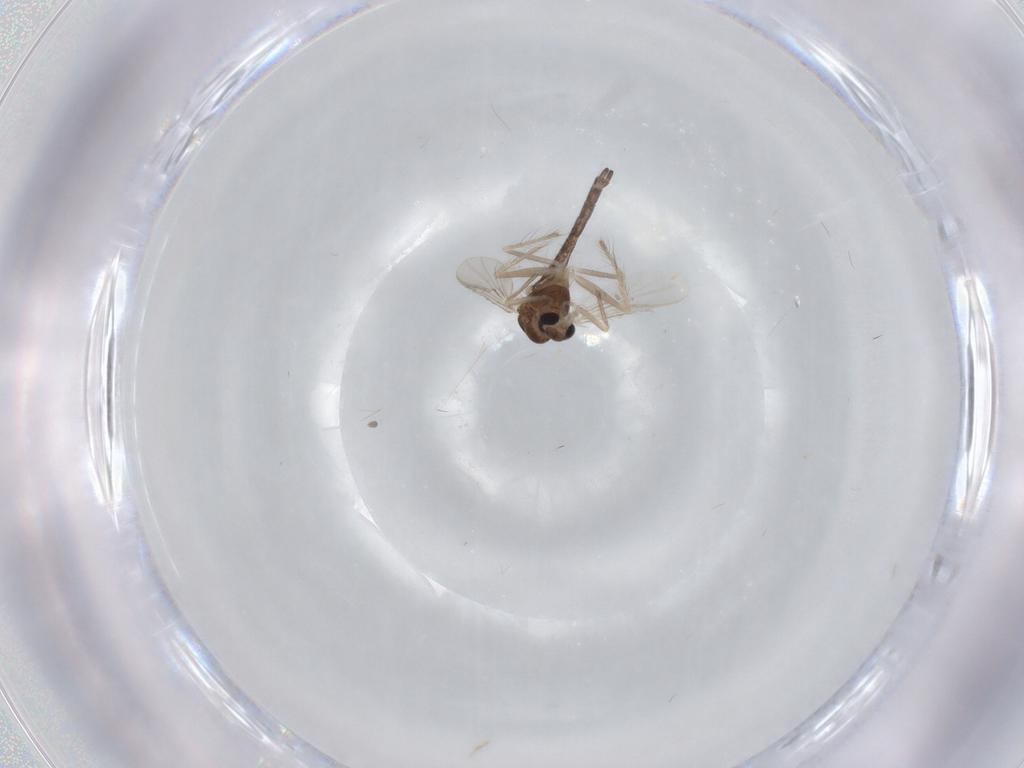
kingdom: Animalia
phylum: Arthropoda
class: Insecta
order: Diptera
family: Chironomidae
